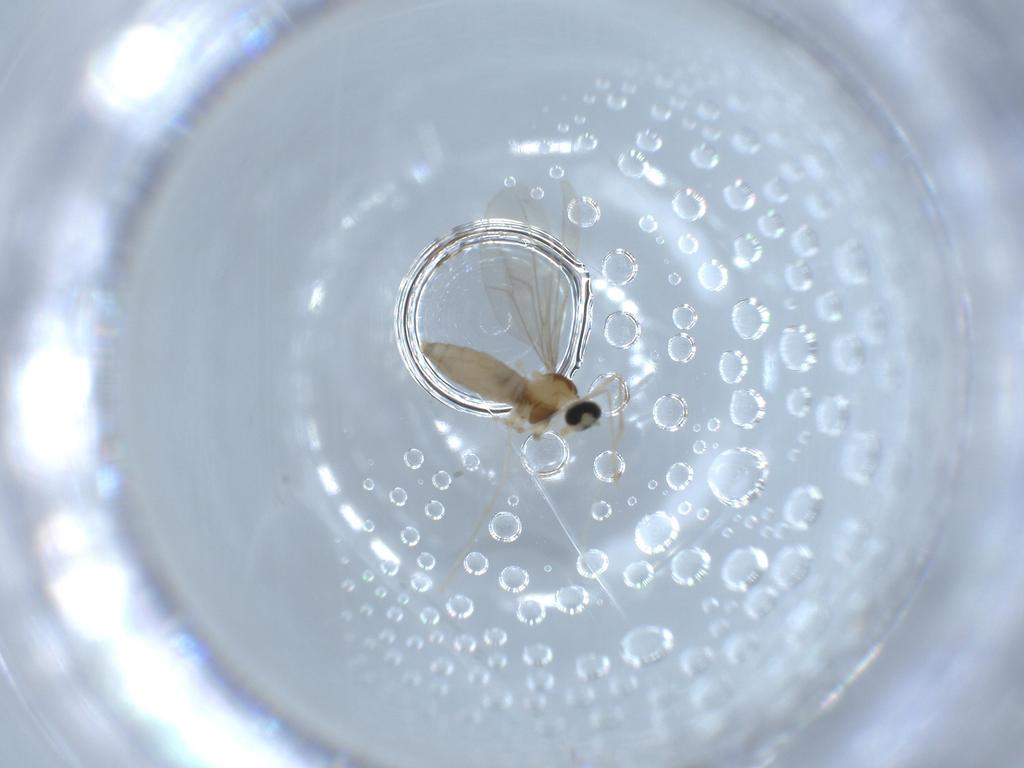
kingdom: Animalia
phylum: Arthropoda
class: Insecta
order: Diptera
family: Cecidomyiidae
